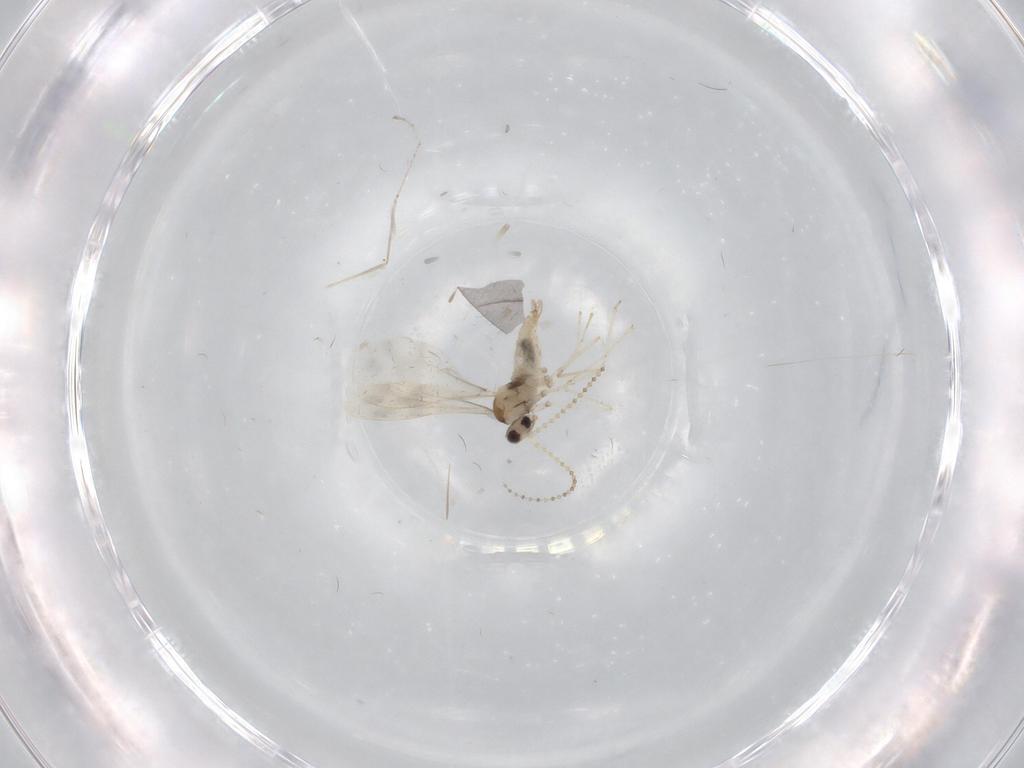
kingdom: Animalia
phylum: Arthropoda
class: Insecta
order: Diptera
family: Cecidomyiidae
